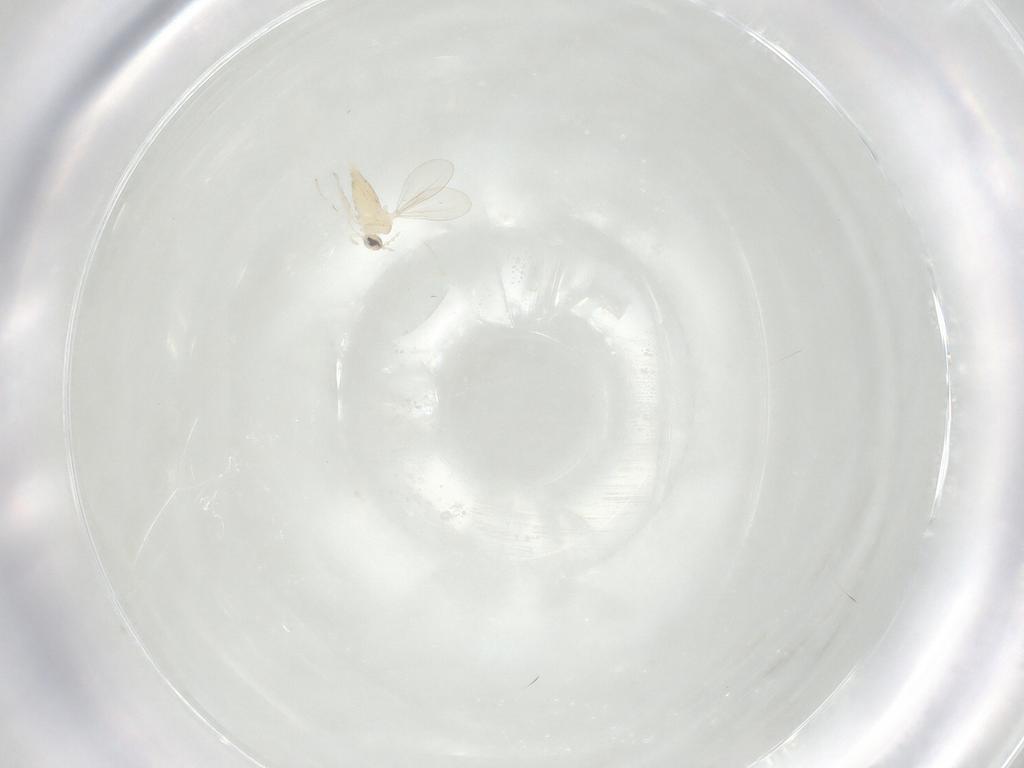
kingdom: Animalia
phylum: Arthropoda
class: Insecta
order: Diptera
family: Cecidomyiidae
